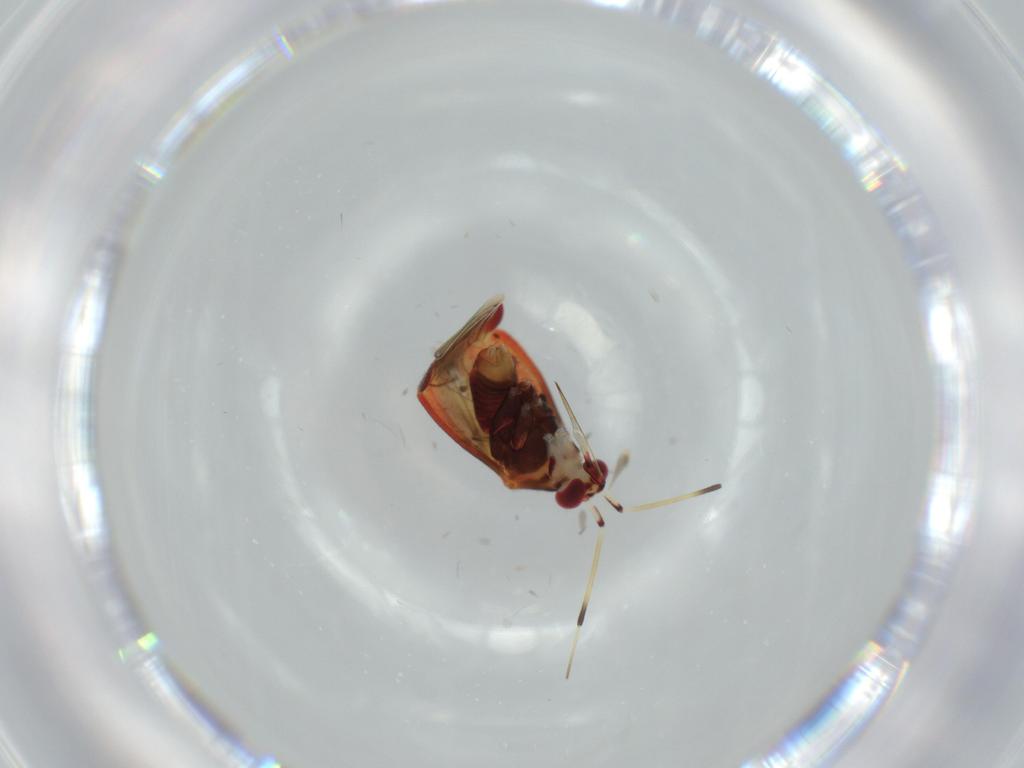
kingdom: Animalia
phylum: Arthropoda
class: Insecta
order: Hemiptera
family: Miridae
